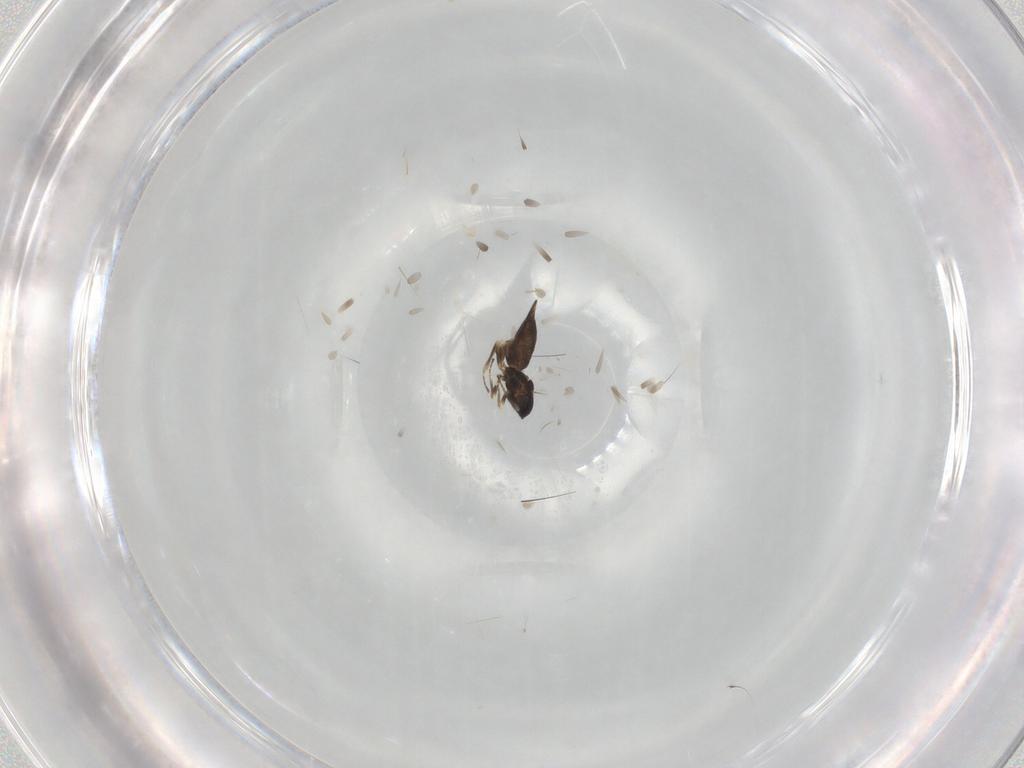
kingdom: Animalia
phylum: Arthropoda
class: Insecta
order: Hymenoptera
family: Eulophidae
